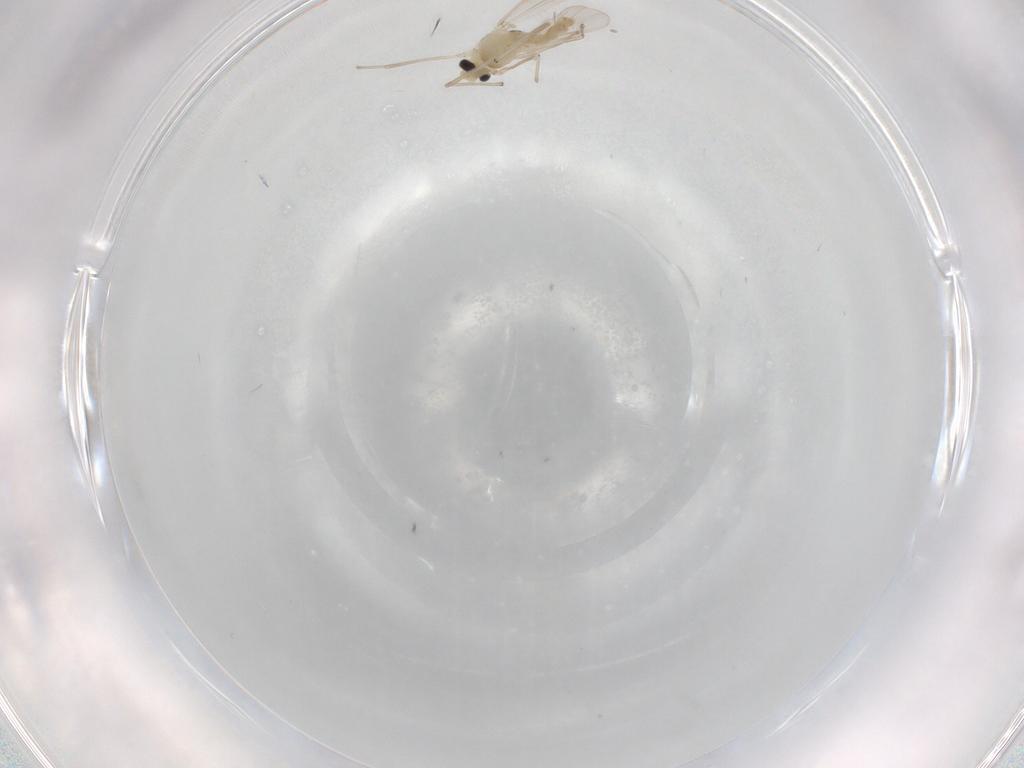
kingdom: Animalia
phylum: Arthropoda
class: Insecta
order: Diptera
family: Chironomidae
